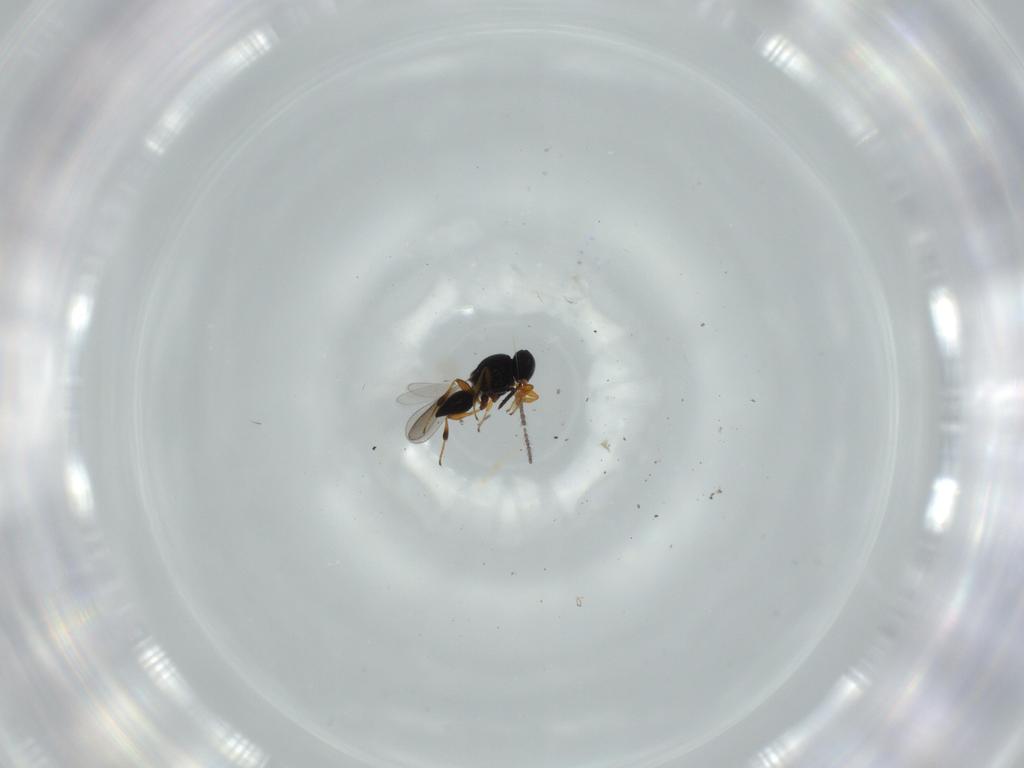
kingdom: Animalia
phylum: Arthropoda
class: Insecta
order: Hymenoptera
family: Platygastridae
